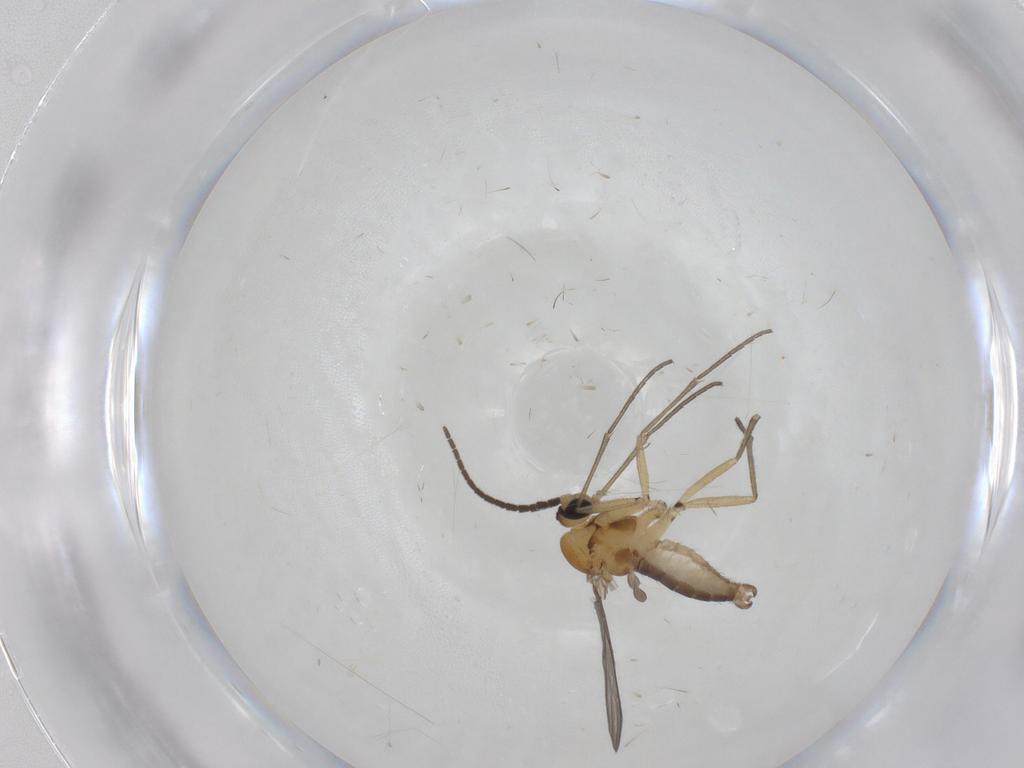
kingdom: Animalia
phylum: Arthropoda
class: Insecta
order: Diptera
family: Sciaridae
